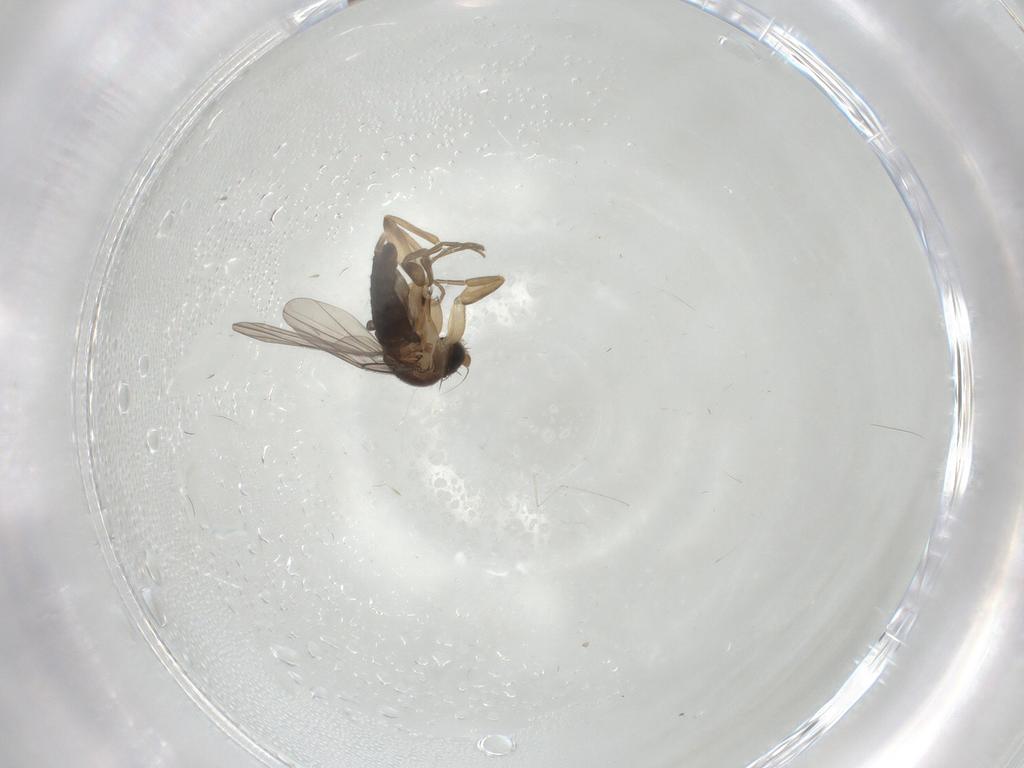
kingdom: Animalia
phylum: Arthropoda
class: Insecta
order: Diptera
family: Phoridae
